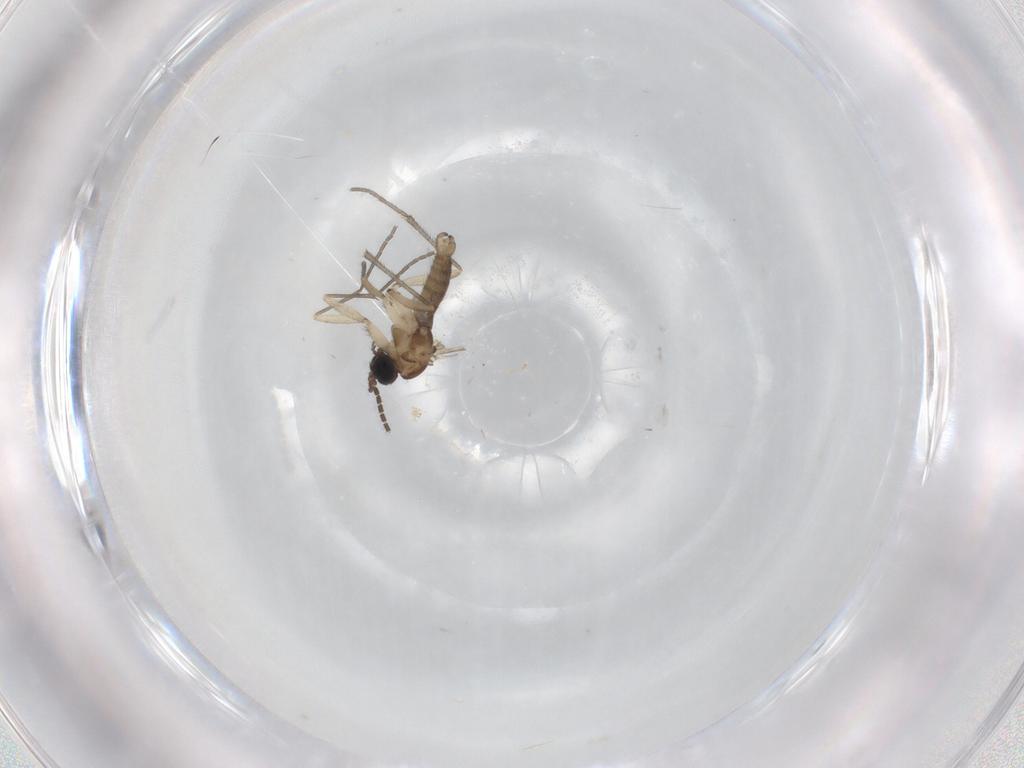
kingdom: Animalia
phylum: Arthropoda
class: Insecta
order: Diptera
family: Sciaridae
